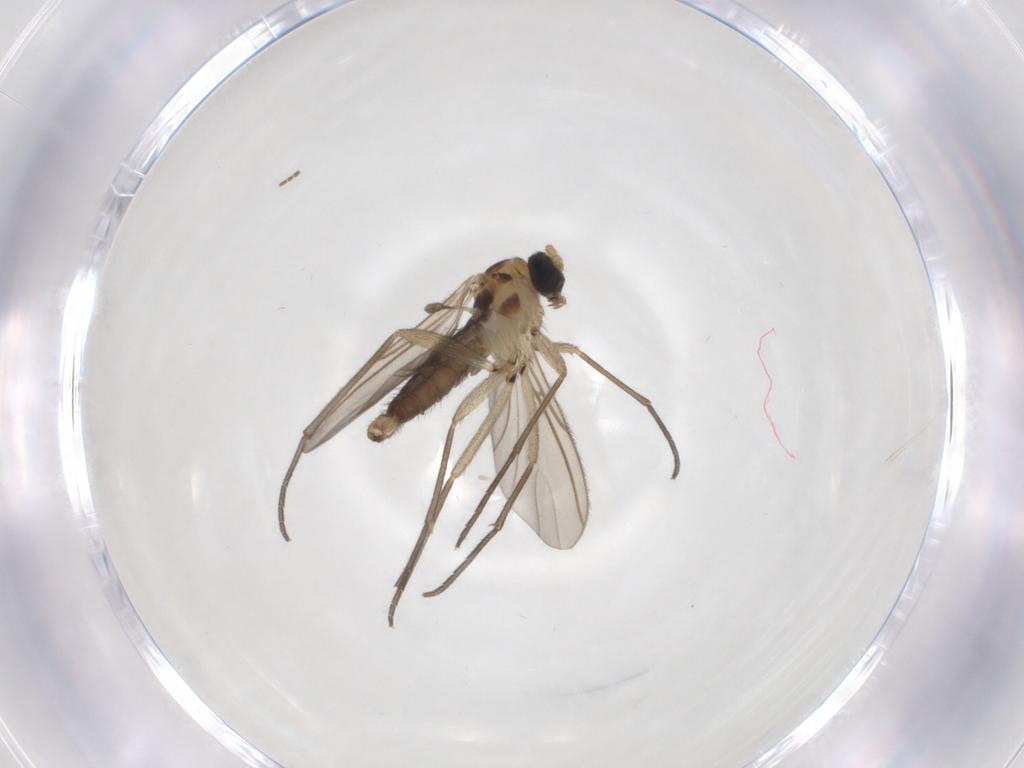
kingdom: Animalia
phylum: Arthropoda
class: Insecta
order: Diptera
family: Sciaridae
